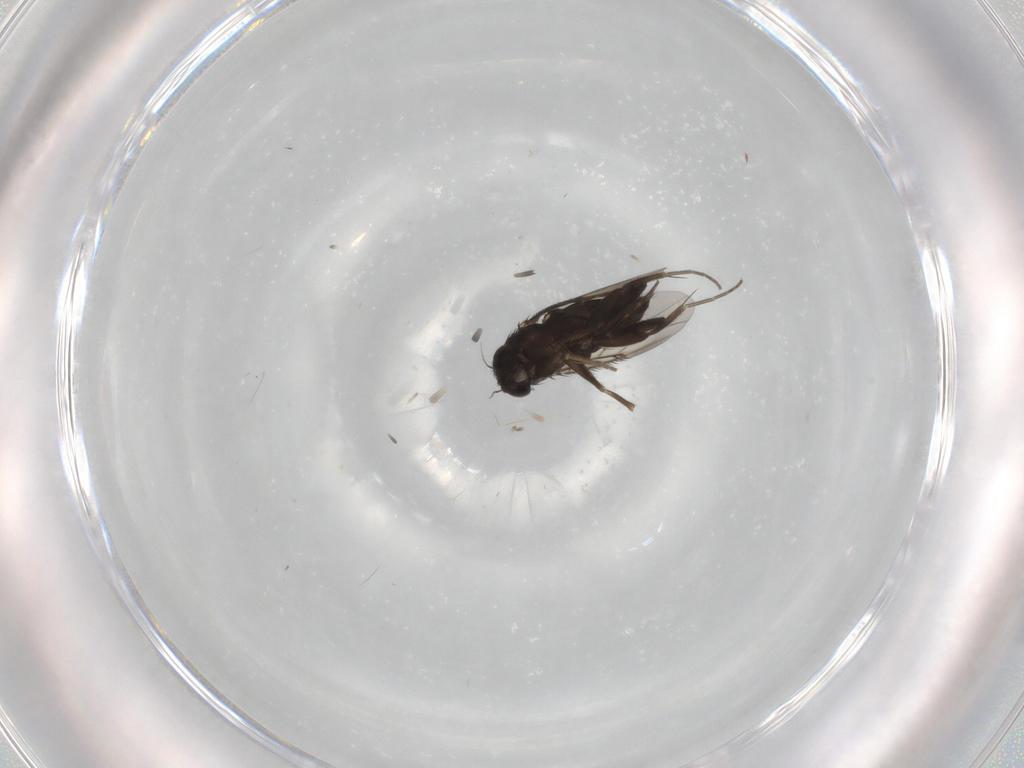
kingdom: Animalia
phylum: Arthropoda
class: Insecta
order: Diptera
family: Phoridae
